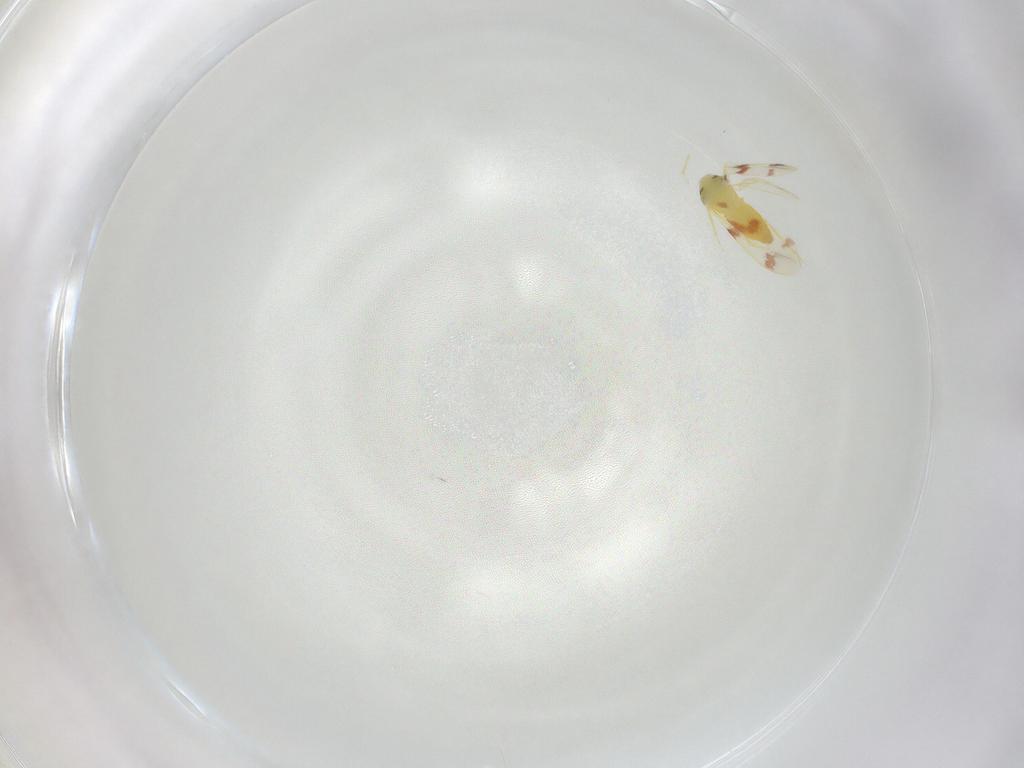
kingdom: Animalia
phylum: Arthropoda
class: Insecta
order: Hemiptera
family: Aleyrodidae
